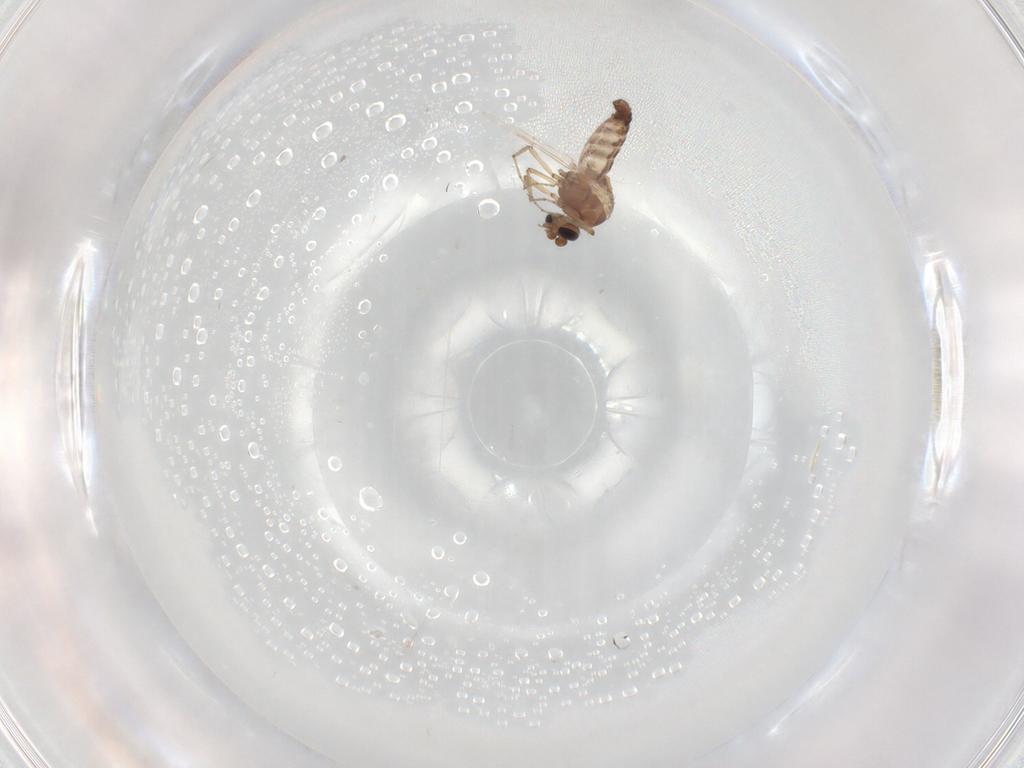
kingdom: Animalia
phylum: Arthropoda
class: Insecta
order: Diptera
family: Ceratopogonidae
